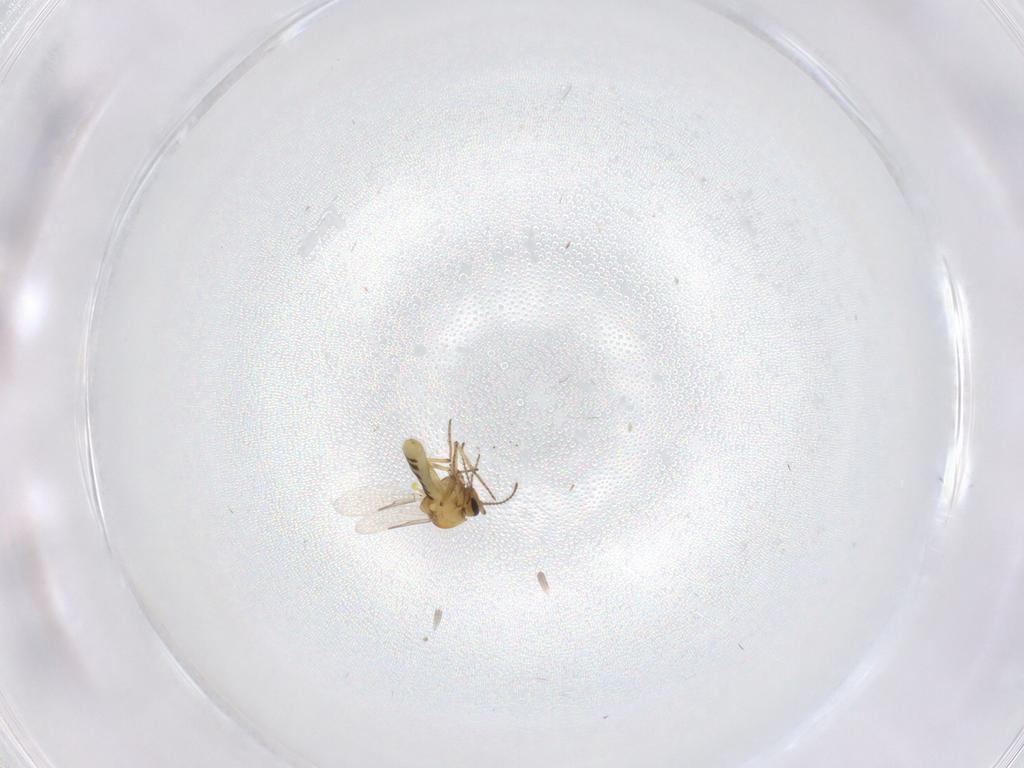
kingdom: Animalia
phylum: Arthropoda
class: Insecta
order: Diptera
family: Ceratopogonidae
